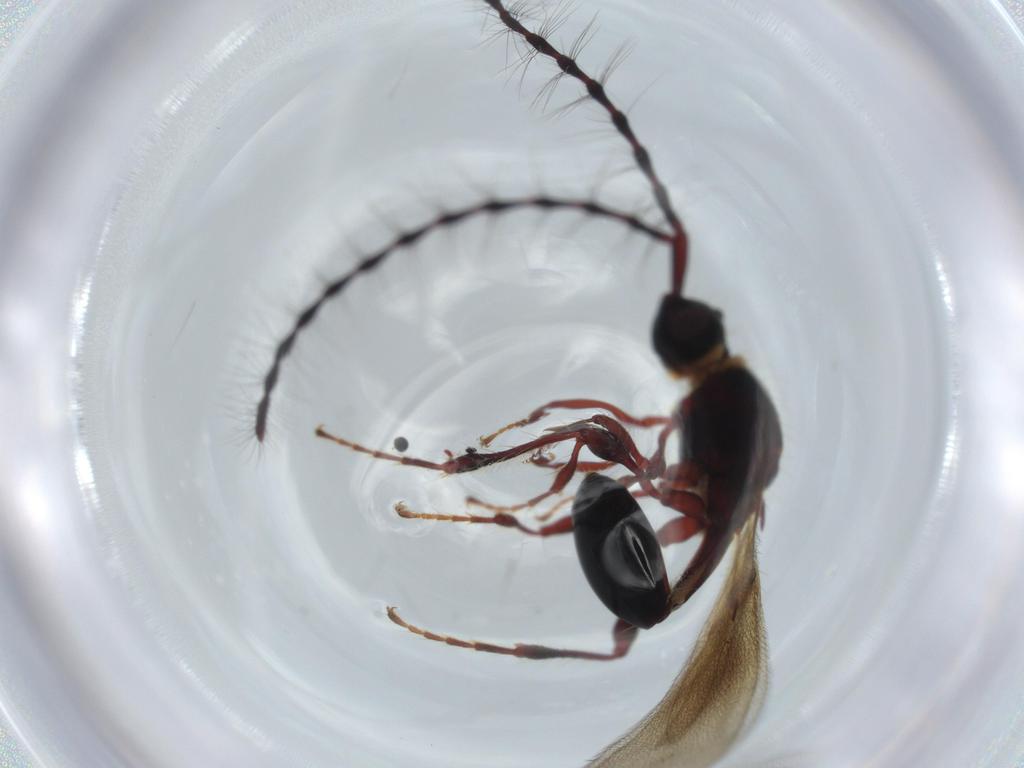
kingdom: Animalia
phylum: Arthropoda
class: Insecta
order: Hymenoptera
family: Diapriidae
